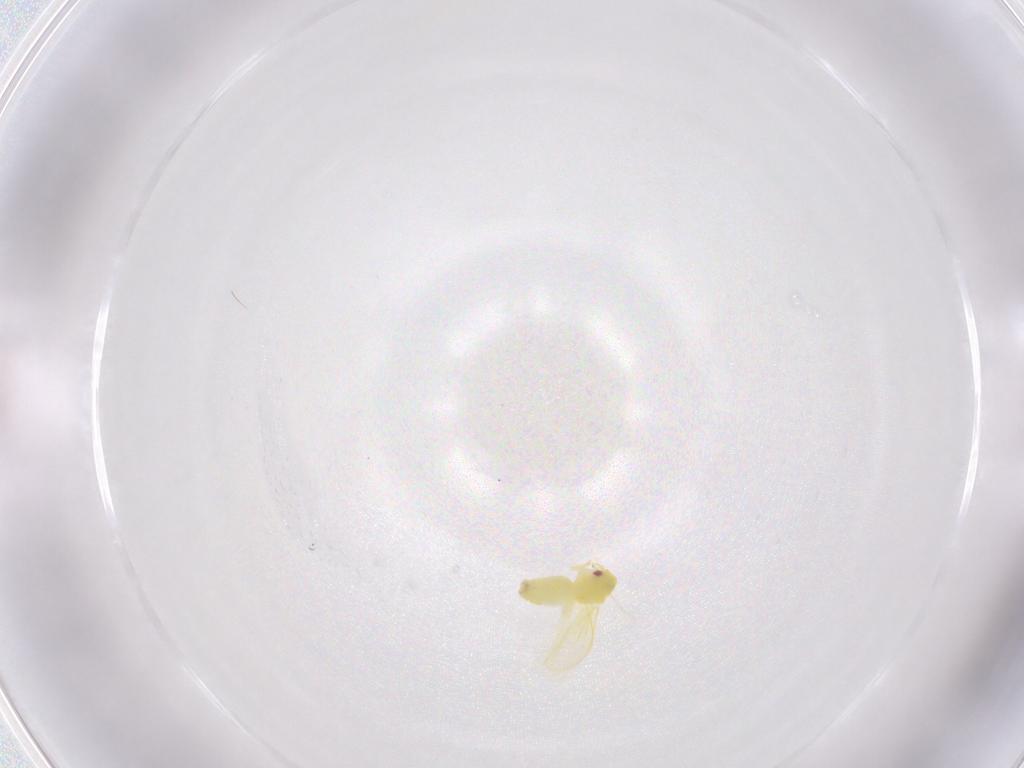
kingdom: Animalia
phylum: Arthropoda
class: Insecta
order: Hemiptera
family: Aleyrodidae
